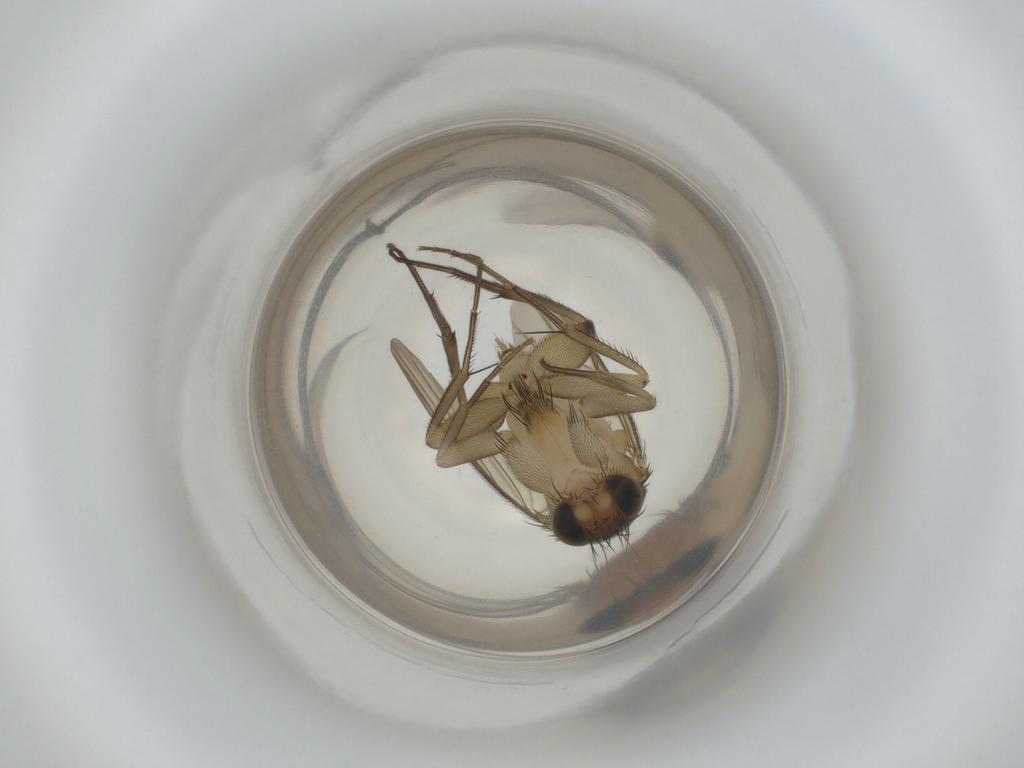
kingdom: Animalia
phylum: Arthropoda
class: Insecta
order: Diptera
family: Phoridae
